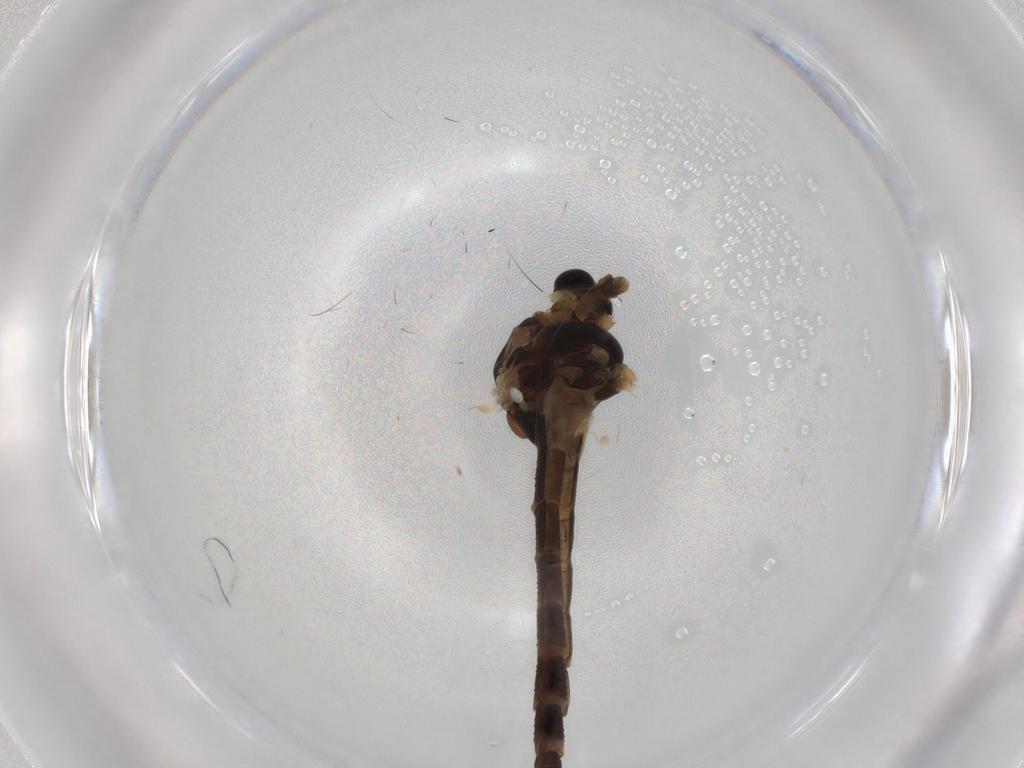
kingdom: Animalia
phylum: Arthropoda
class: Insecta
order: Diptera
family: Chironomidae
